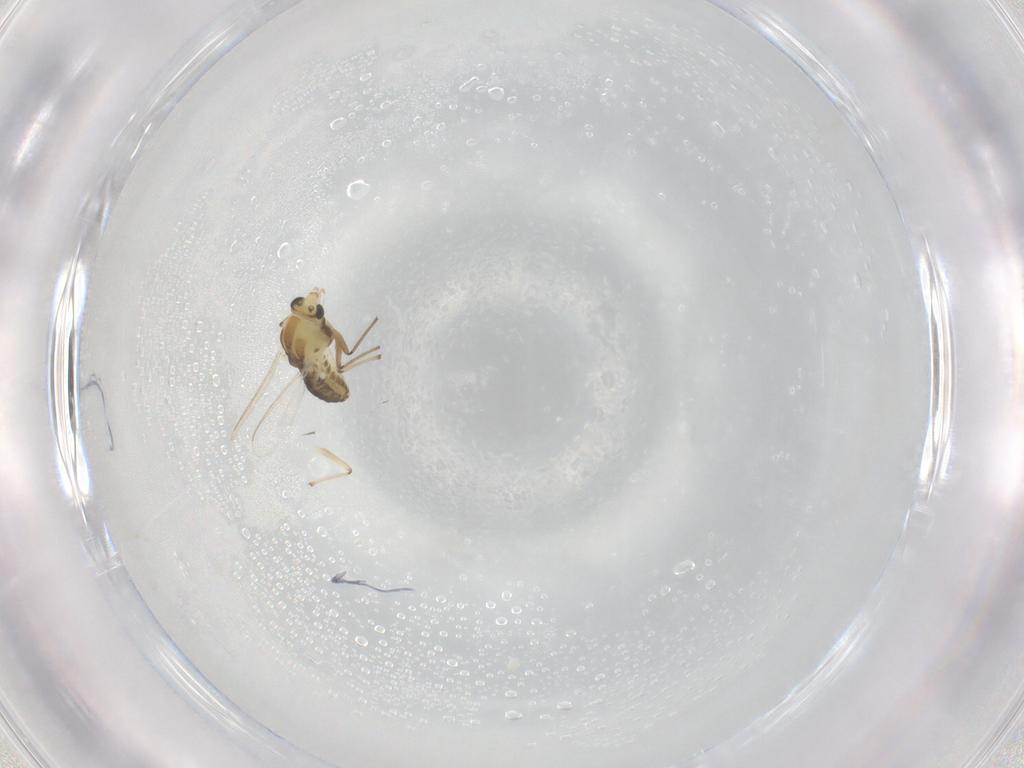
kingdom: Animalia
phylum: Arthropoda
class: Insecta
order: Diptera
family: Chironomidae
